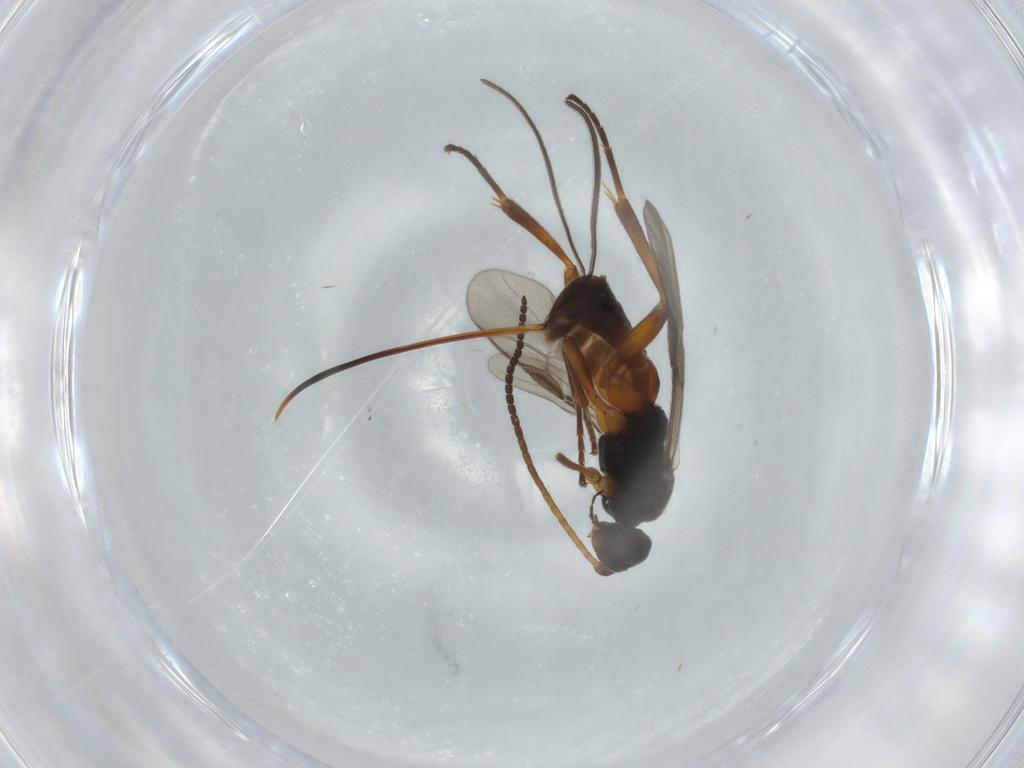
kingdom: Animalia
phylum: Arthropoda
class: Insecta
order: Hymenoptera
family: Braconidae
